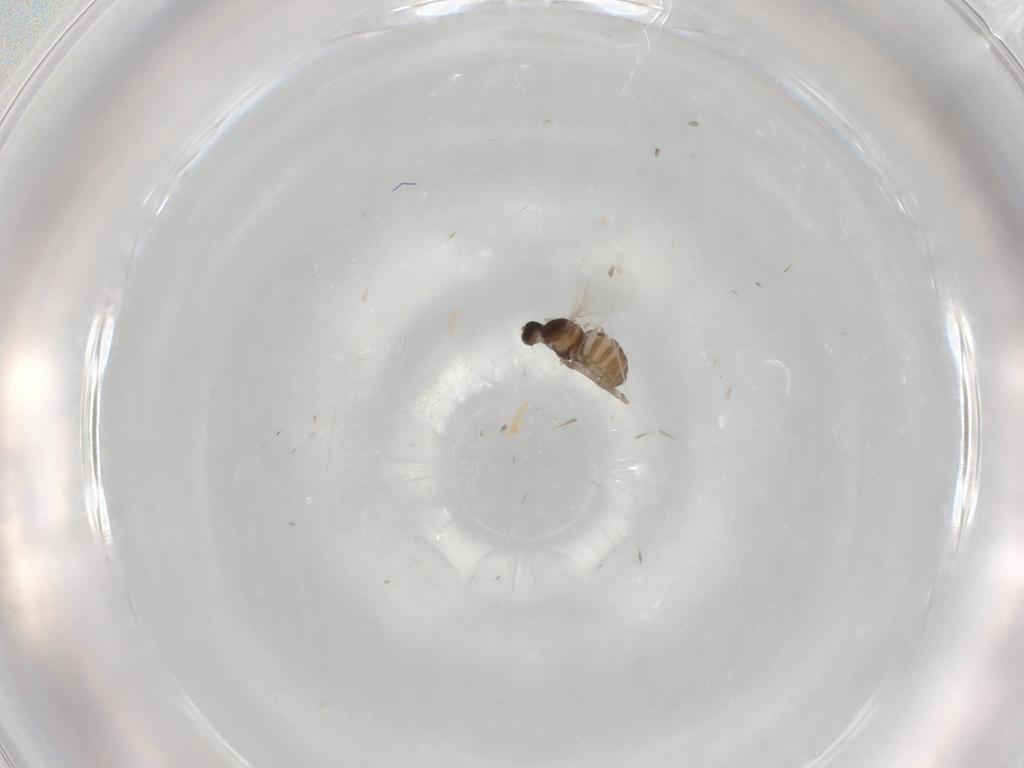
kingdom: Animalia
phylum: Arthropoda
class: Insecta
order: Diptera
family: Cecidomyiidae
